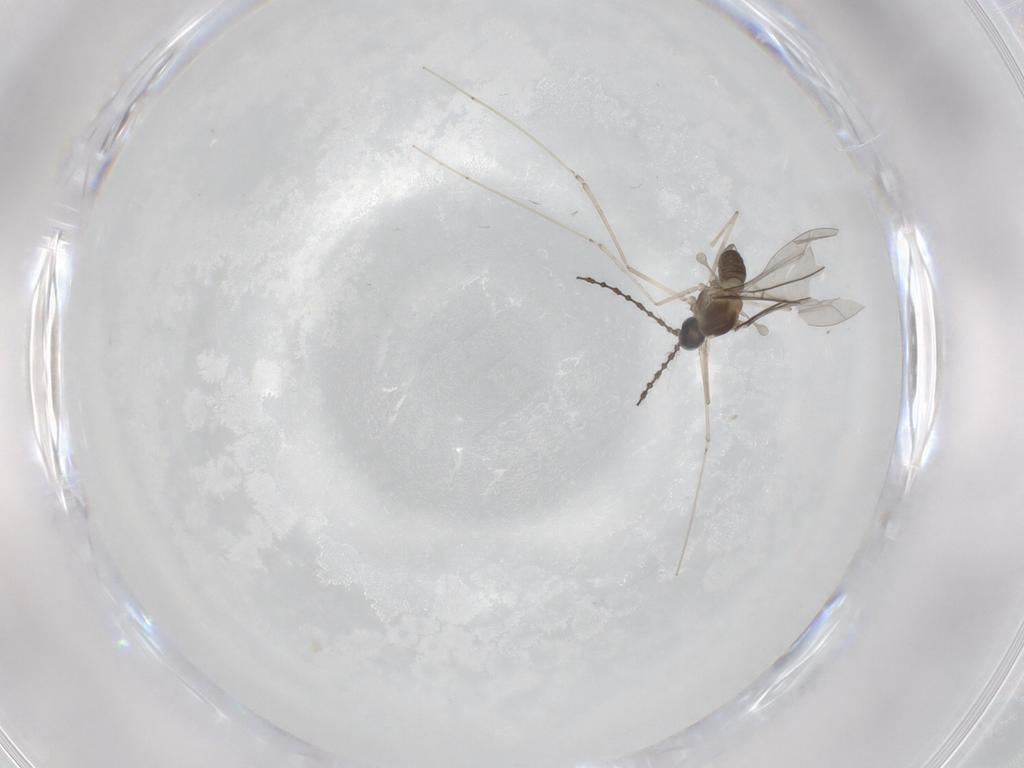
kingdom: Animalia
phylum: Arthropoda
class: Insecta
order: Diptera
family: Cecidomyiidae
